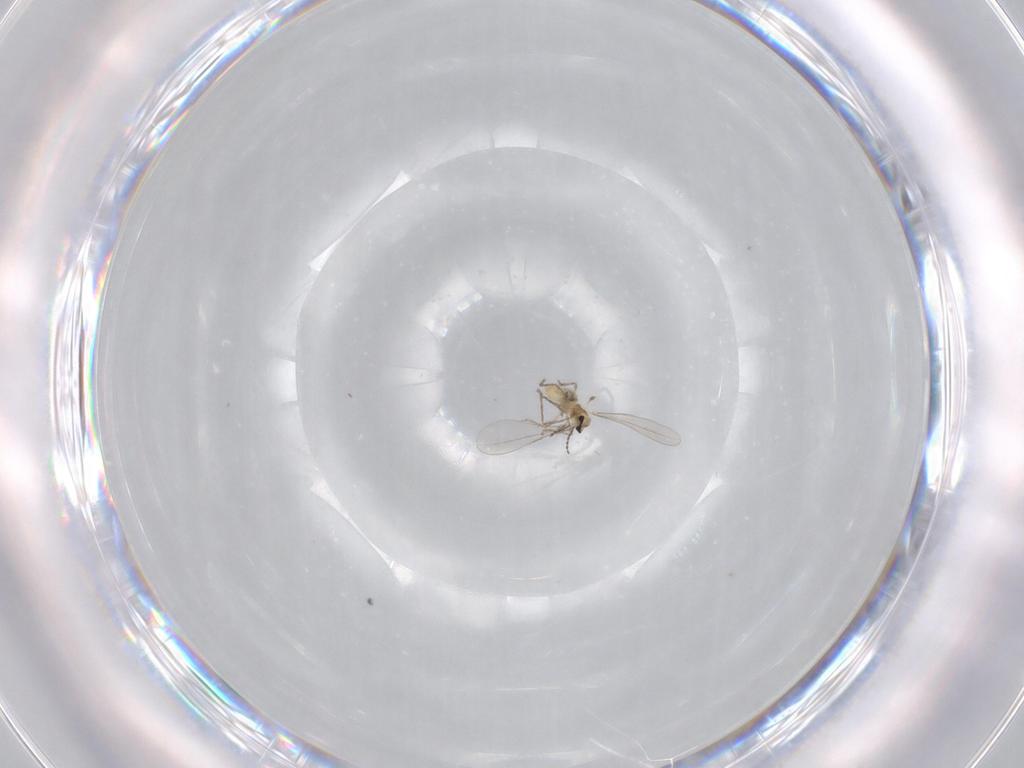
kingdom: Animalia
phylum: Arthropoda
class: Insecta
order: Diptera
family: Cecidomyiidae
